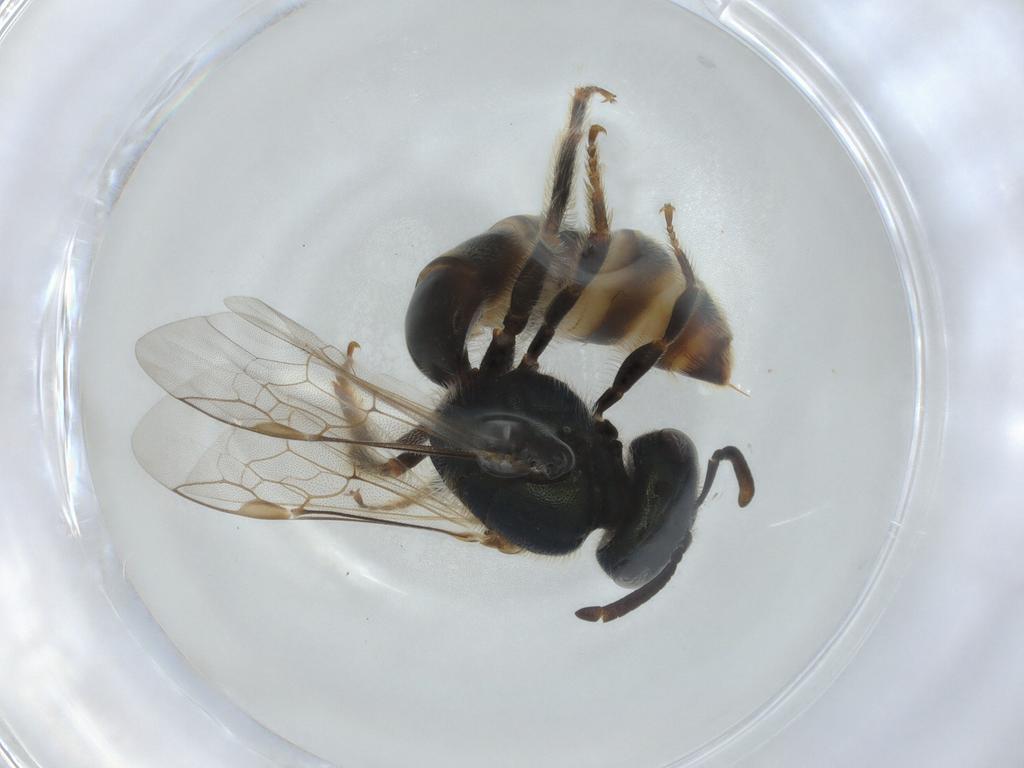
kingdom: Animalia
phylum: Arthropoda
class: Insecta
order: Hymenoptera
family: Halictidae
